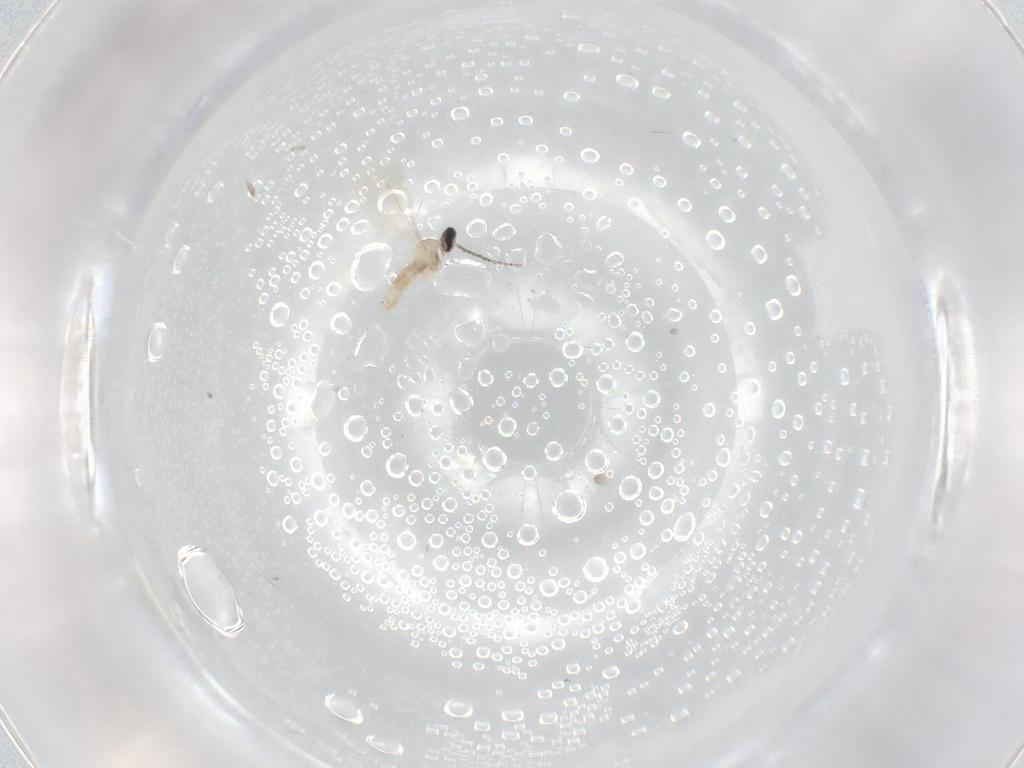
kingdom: Animalia
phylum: Arthropoda
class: Insecta
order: Diptera
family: Cecidomyiidae
